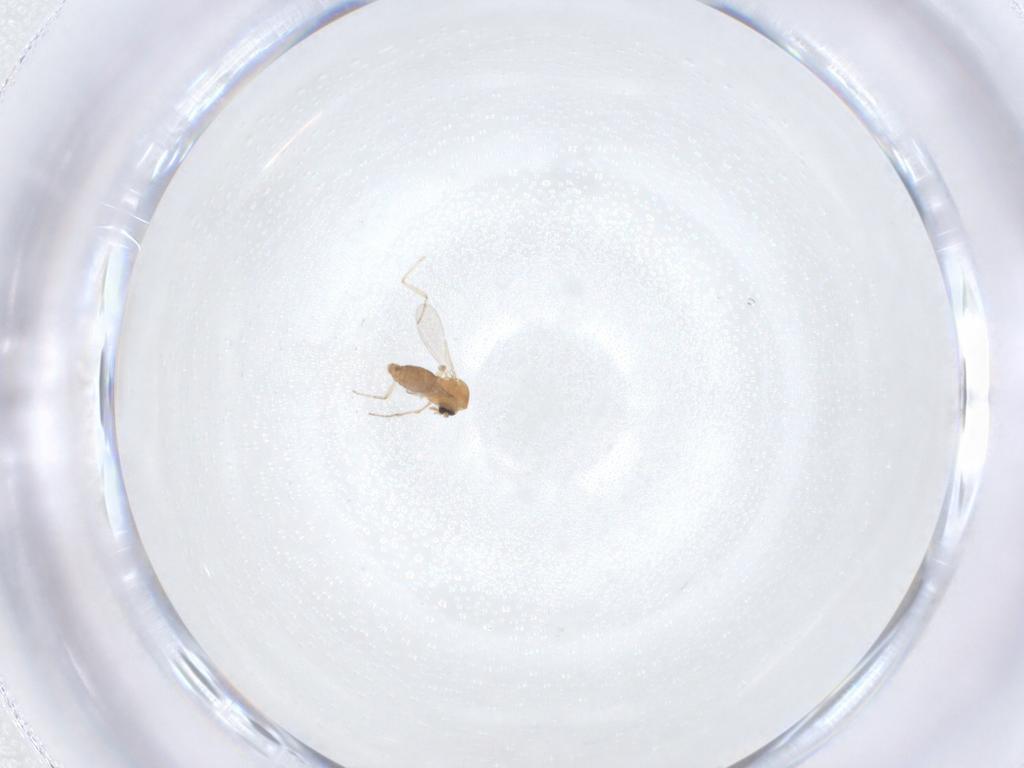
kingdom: Animalia
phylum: Arthropoda
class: Insecta
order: Diptera
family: Ceratopogonidae
